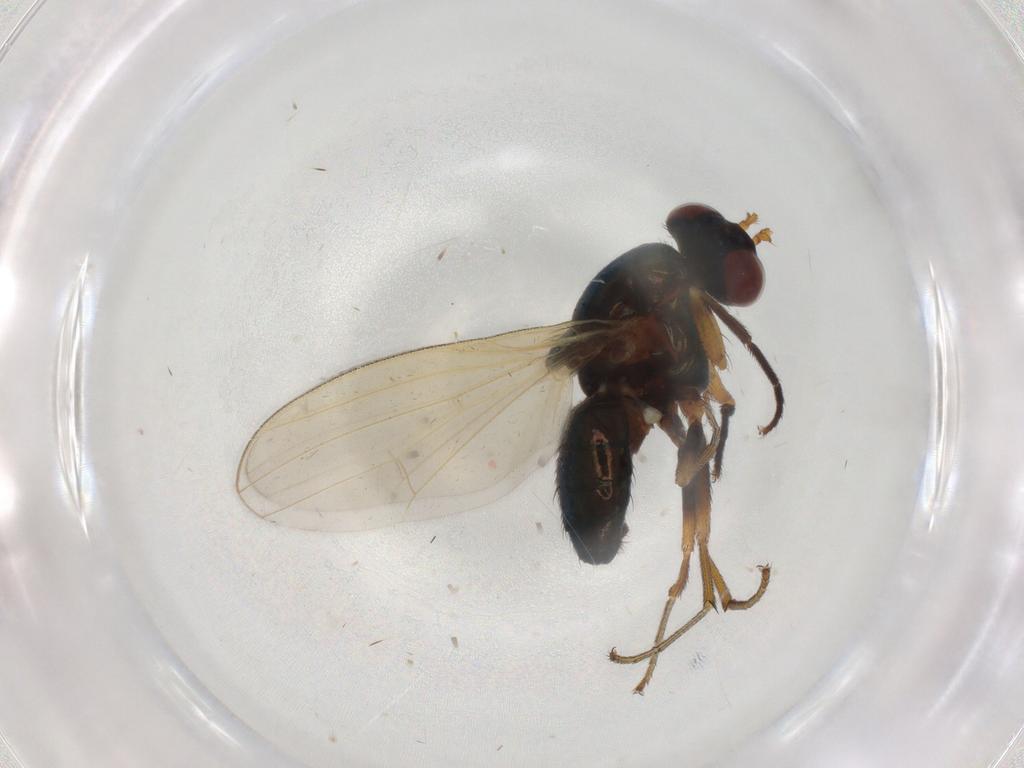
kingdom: Animalia
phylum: Arthropoda
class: Insecta
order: Diptera
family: Lauxaniidae
